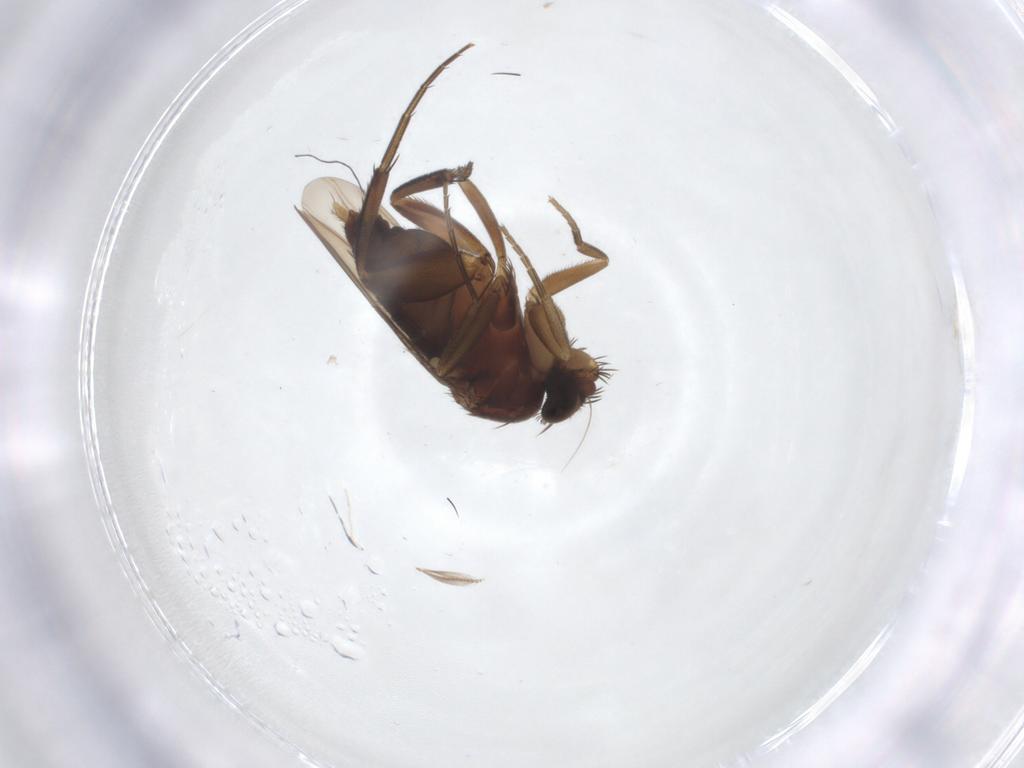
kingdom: Animalia
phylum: Arthropoda
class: Insecta
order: Diptera
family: Phoridae
